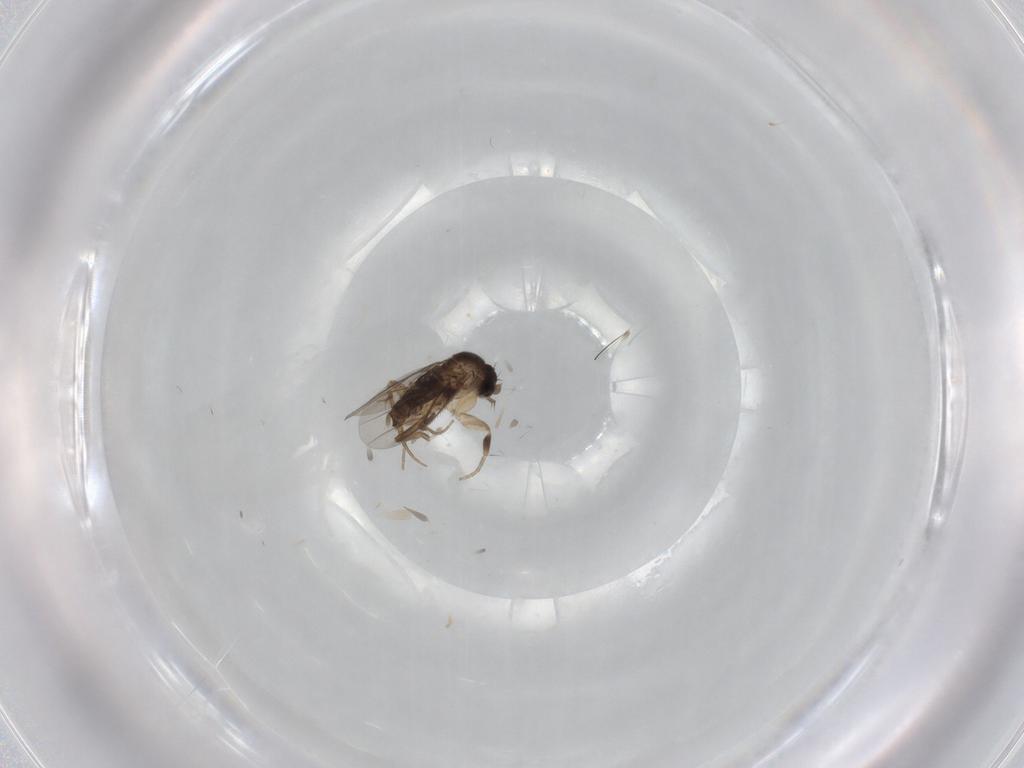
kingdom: Animalia
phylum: Arthropoda
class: Insecta
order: Diptera
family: Phoridae
